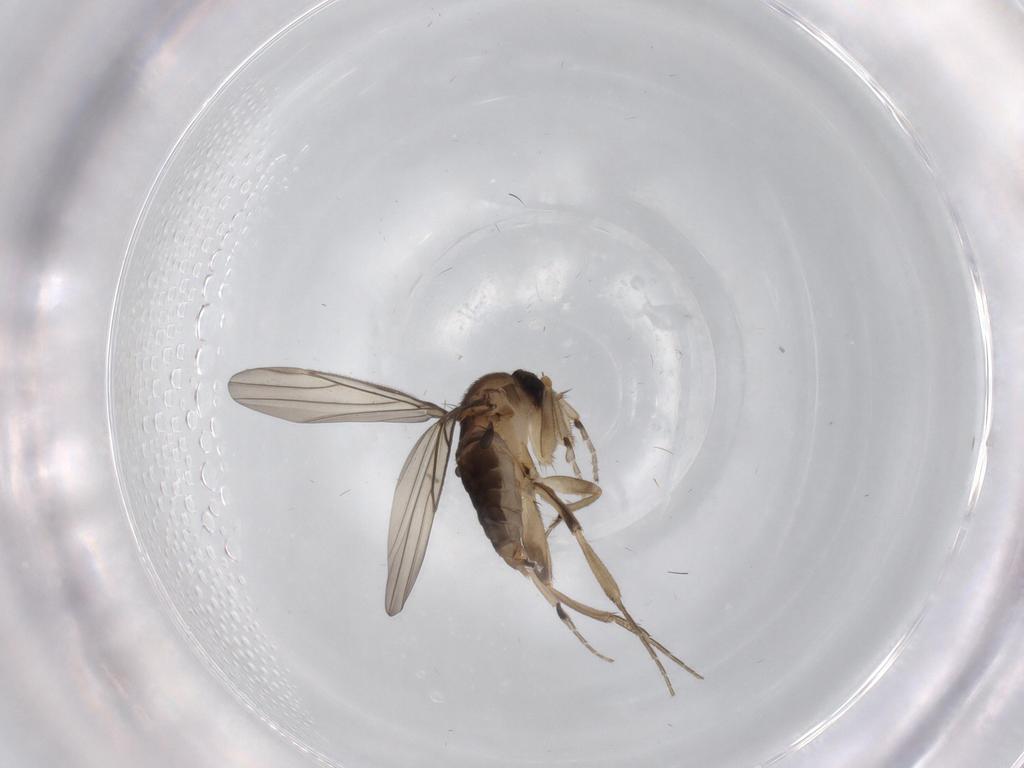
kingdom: Animalia
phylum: Arthropoda
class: Insecta
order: Diptera
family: Phoridae
